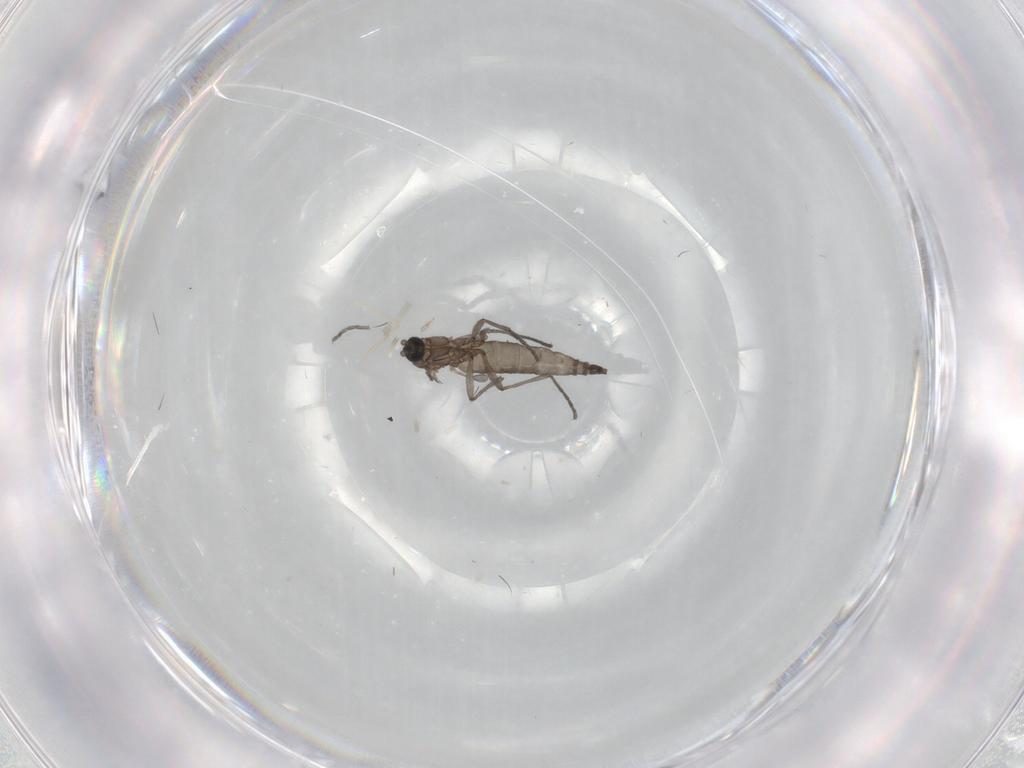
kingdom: Animalia
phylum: Arthropoda
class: Insecta
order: Diptera
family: Sciaridae
